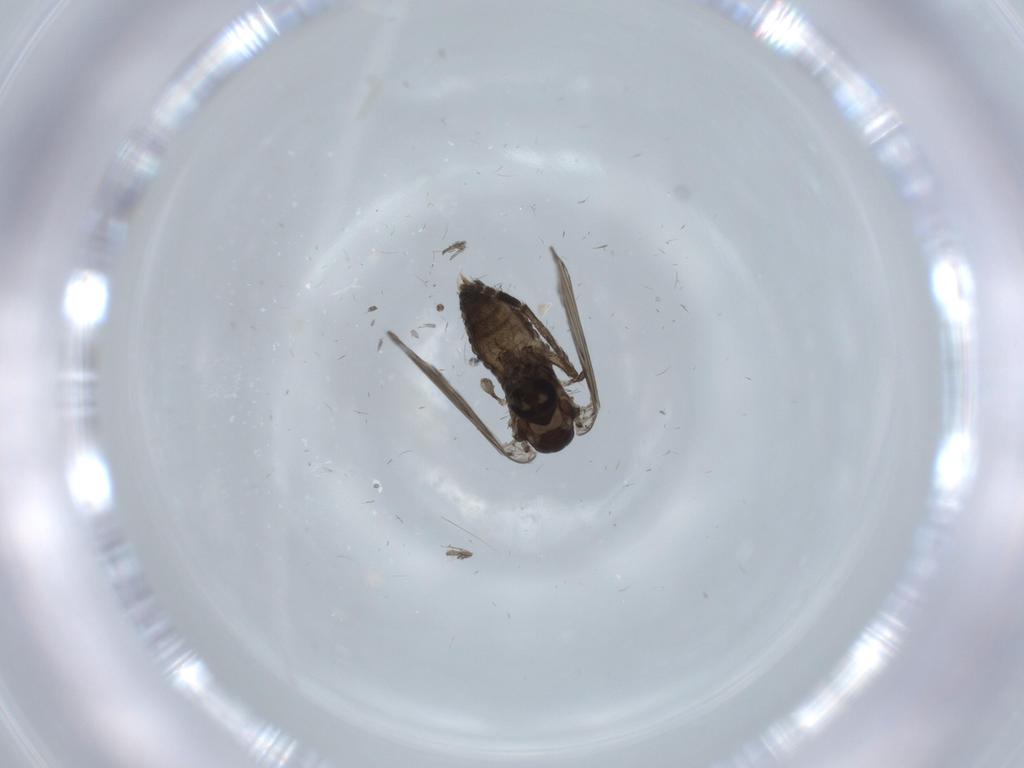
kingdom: Animalia
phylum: Arthropoda
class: Insecta
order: Diptera
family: Psychodidae
